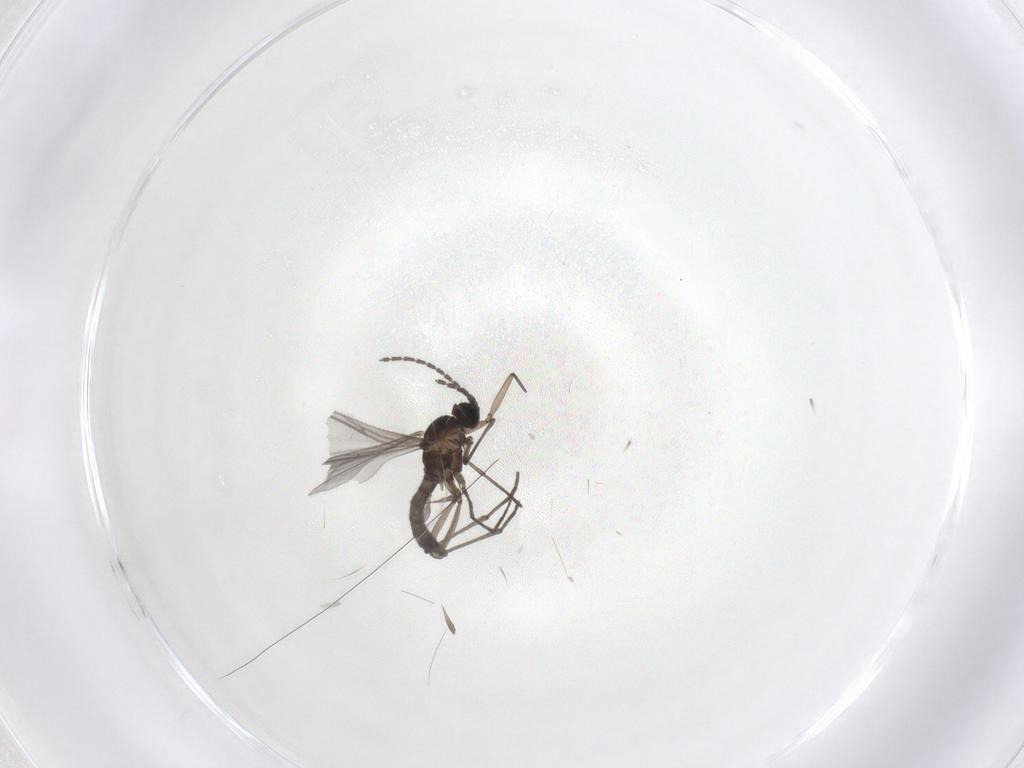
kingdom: Animalia
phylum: Arthropoda
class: Insecta
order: Diptera
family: Sciaridae
